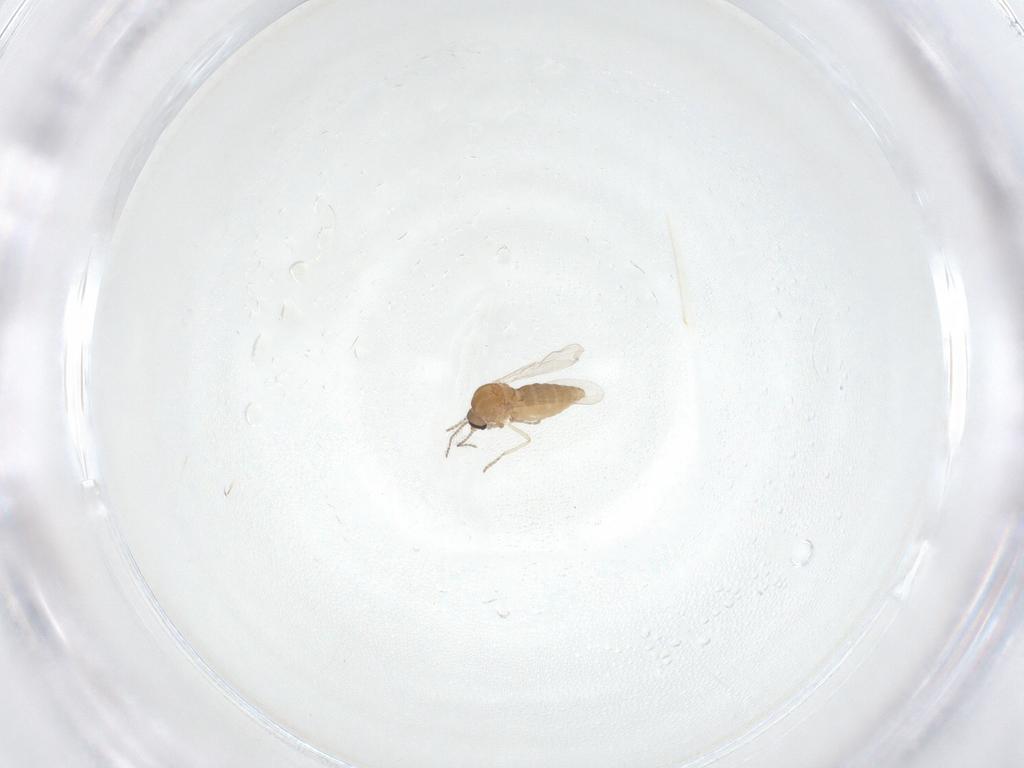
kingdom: Animalia
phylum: Arthropoda
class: Insecta
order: Diptera
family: Ceratopogonidae
